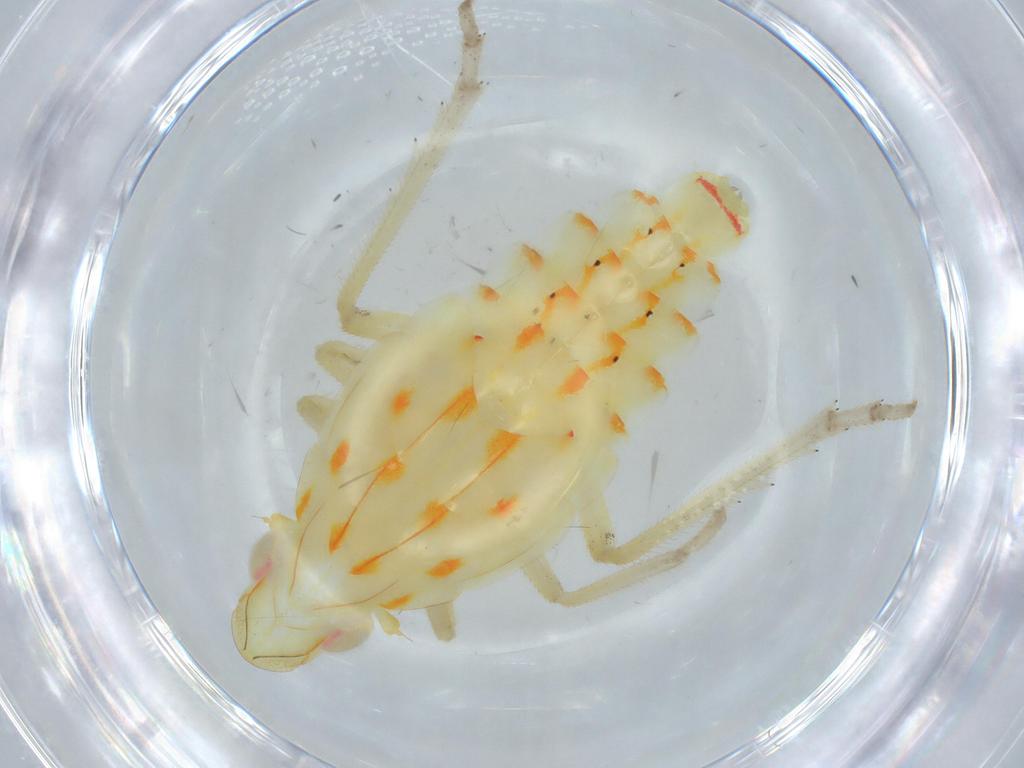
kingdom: Animalia
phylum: Arthropoda
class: Insecta
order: Hemiptera
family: Tropiduchidae
